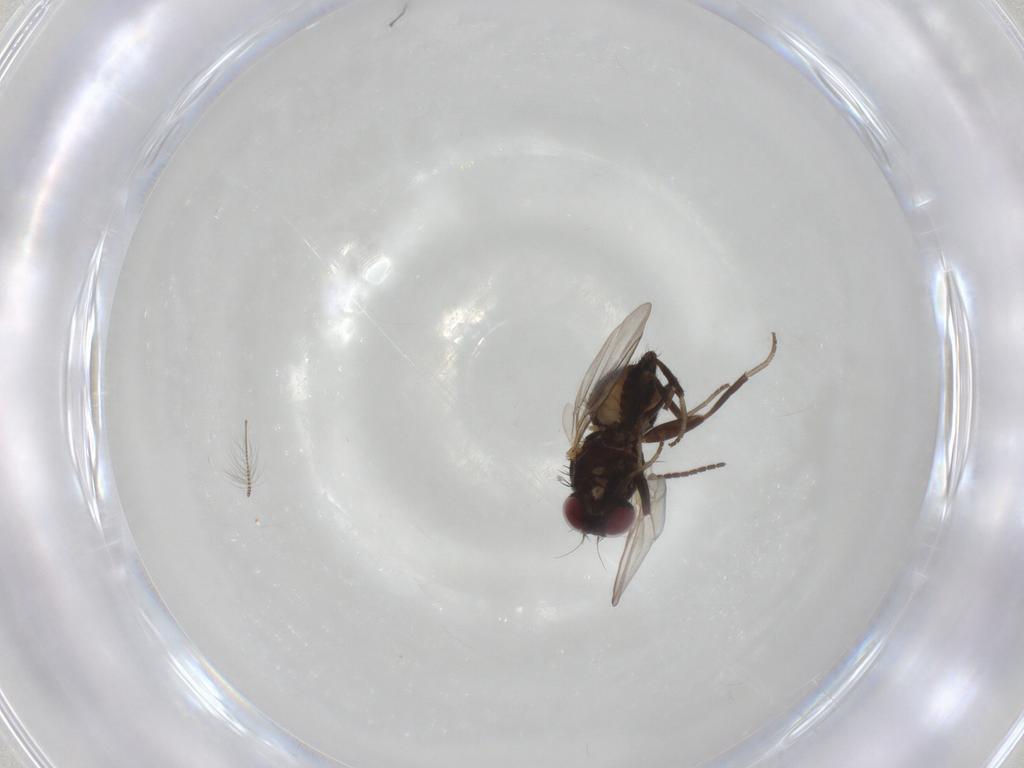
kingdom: Animalia
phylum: Arthropoda
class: Insecta
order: Diptera
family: Sciaridae
